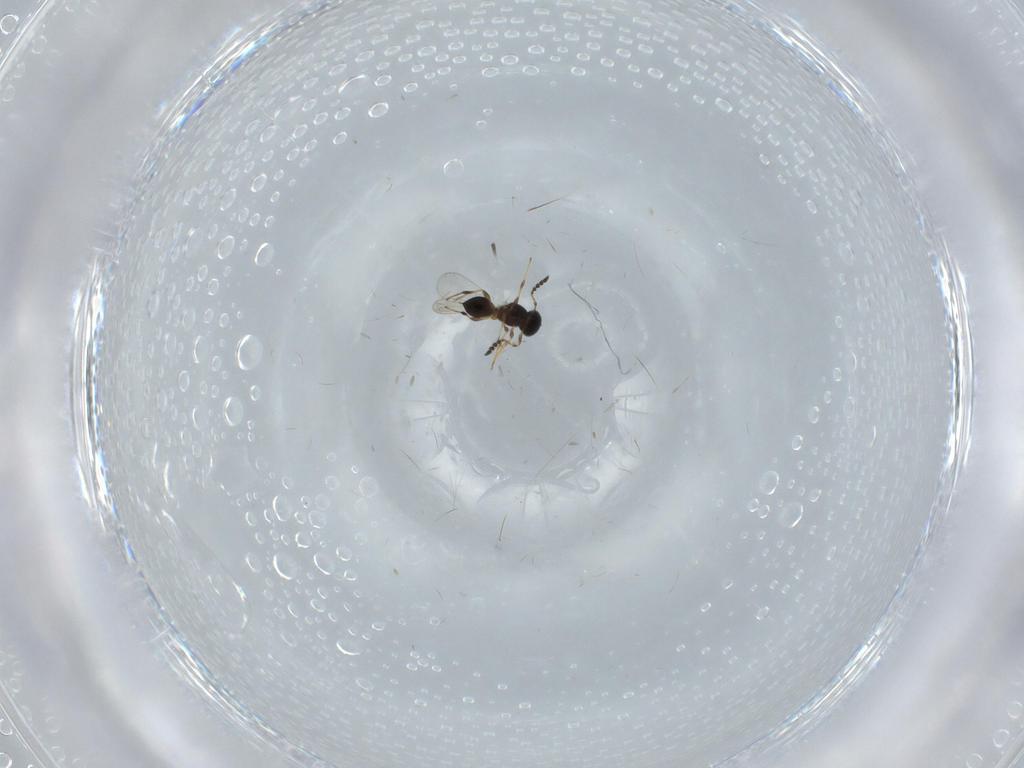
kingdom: Animalia
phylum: Arthropoda
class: Insecta
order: Hymenoptera
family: Platygastridae
